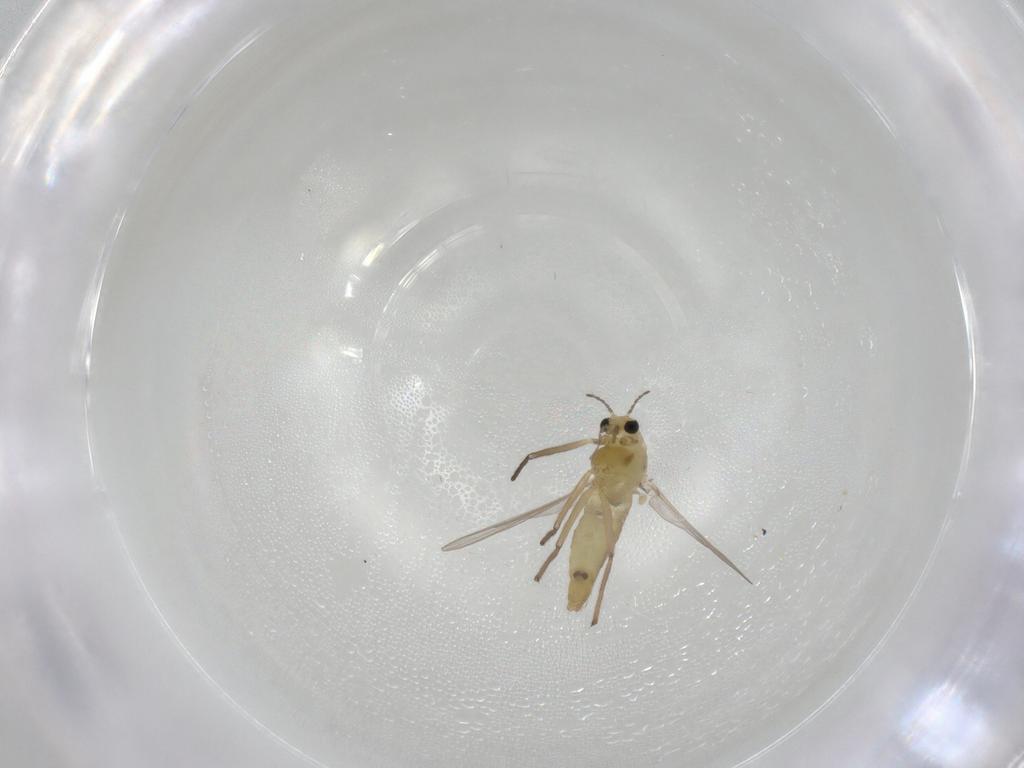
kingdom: Animalia
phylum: Arthropoda
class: Insecta
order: Diptera
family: Chironomidae
